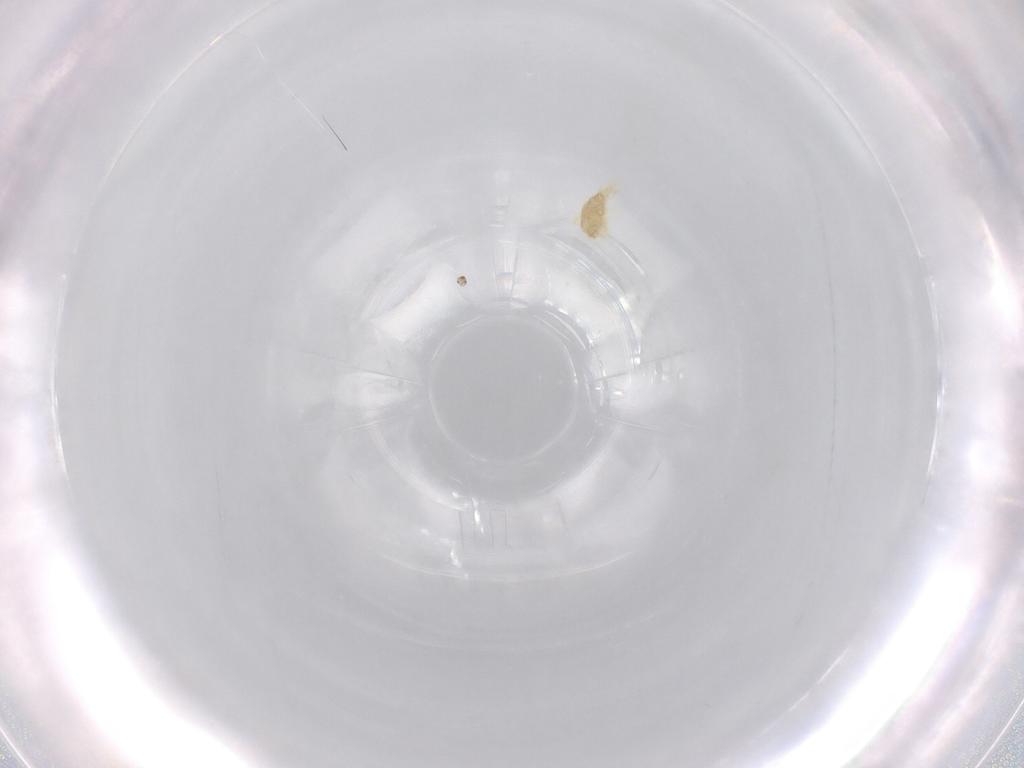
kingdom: Animalia
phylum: Arthropoda
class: Arachnida
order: Trombidiformes
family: Eupodidae
